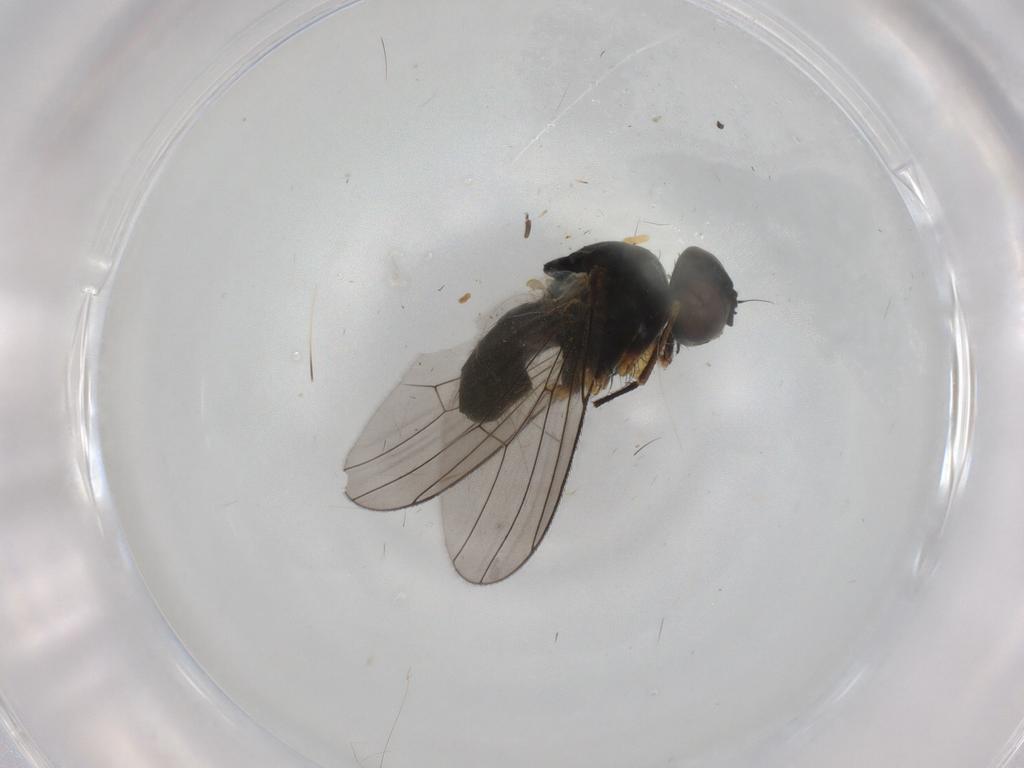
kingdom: Animalia
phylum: Arthropoda
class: Insecta
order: Diptera
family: Muscidae
